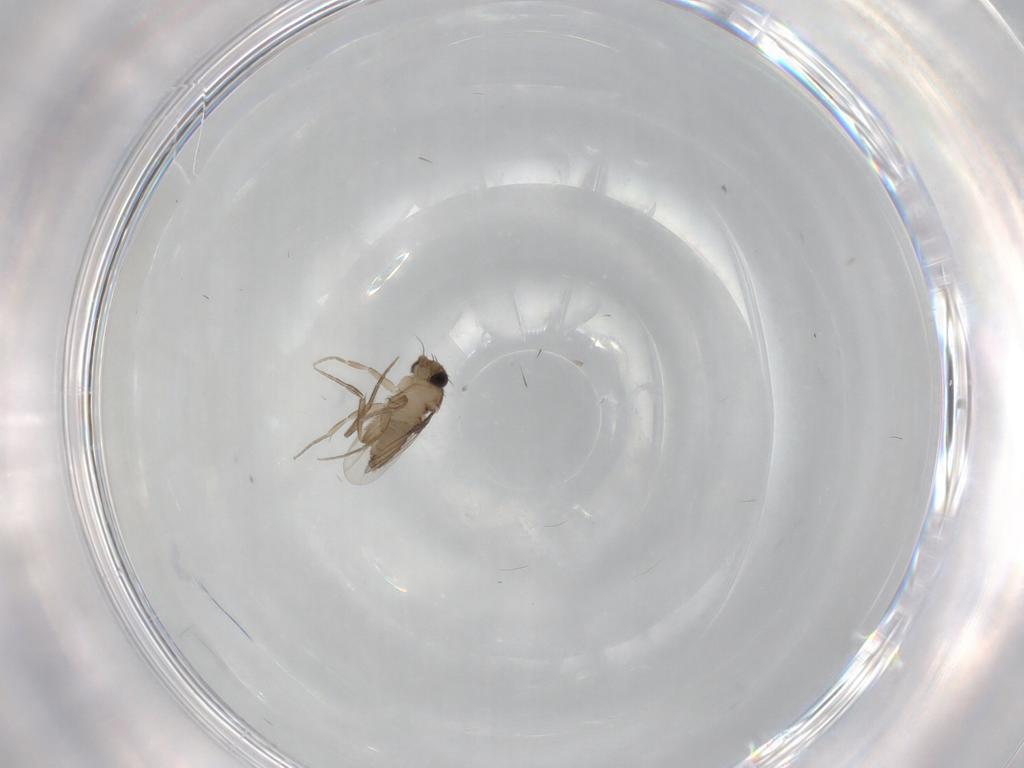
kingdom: Animalia
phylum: Arthropoda
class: Insecta
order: Diptera
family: Phoridae
